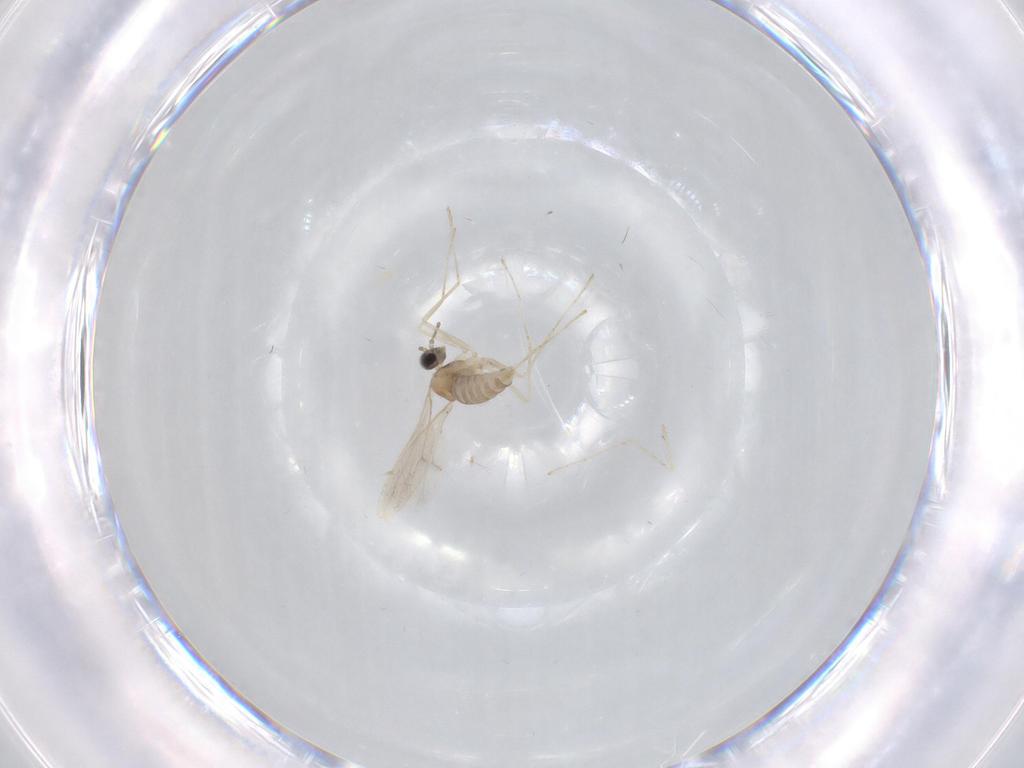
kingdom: Animalia
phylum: Arthropoda
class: Insecta
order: Diptera
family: Cecidomyiidae
